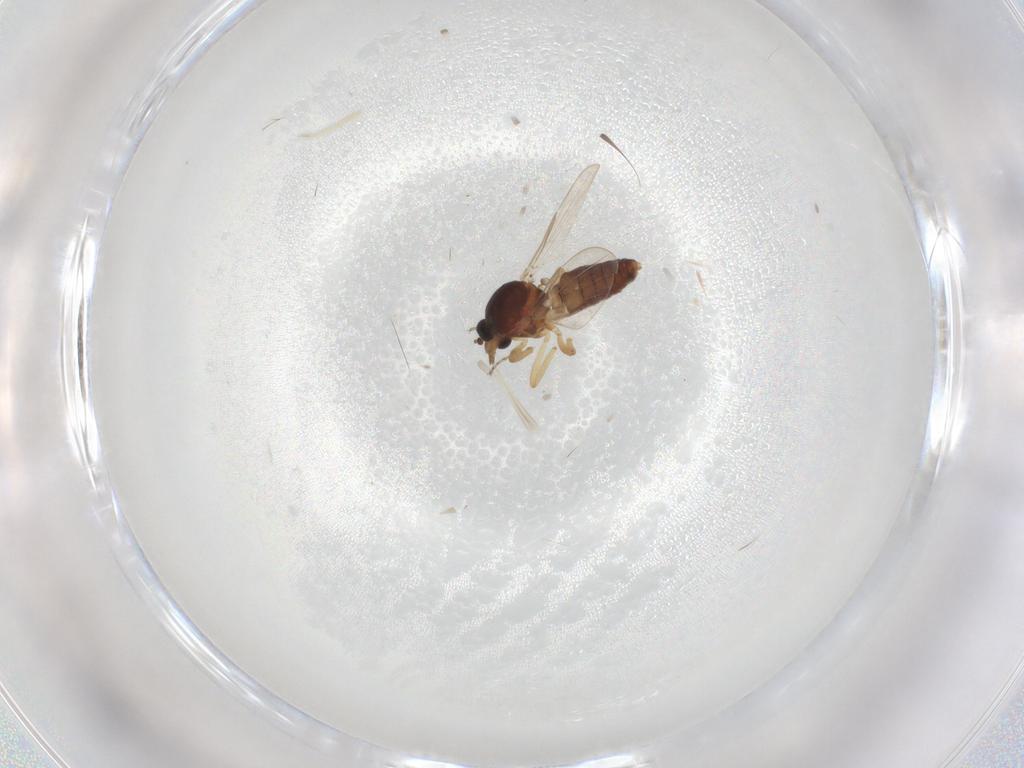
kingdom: Animalia
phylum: Arthropoda
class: Insecta
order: Diptera
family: Ceratopogonidae
